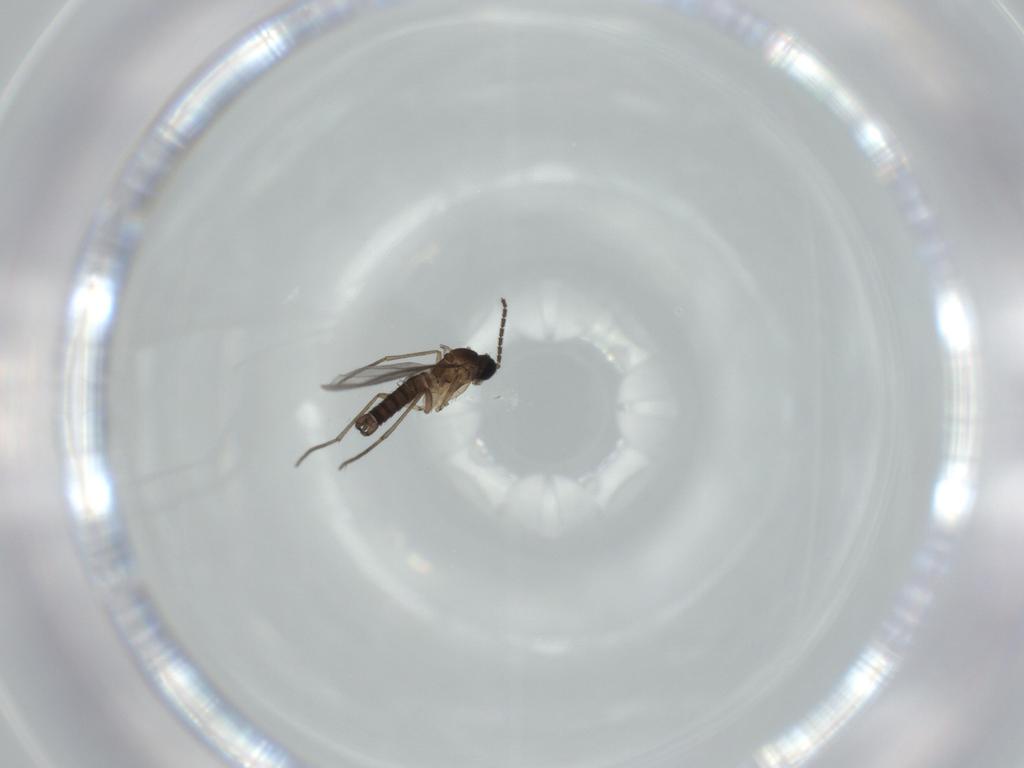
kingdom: Animalia
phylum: Arthropoda
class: Insecta
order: Diptera
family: Sciaridae
